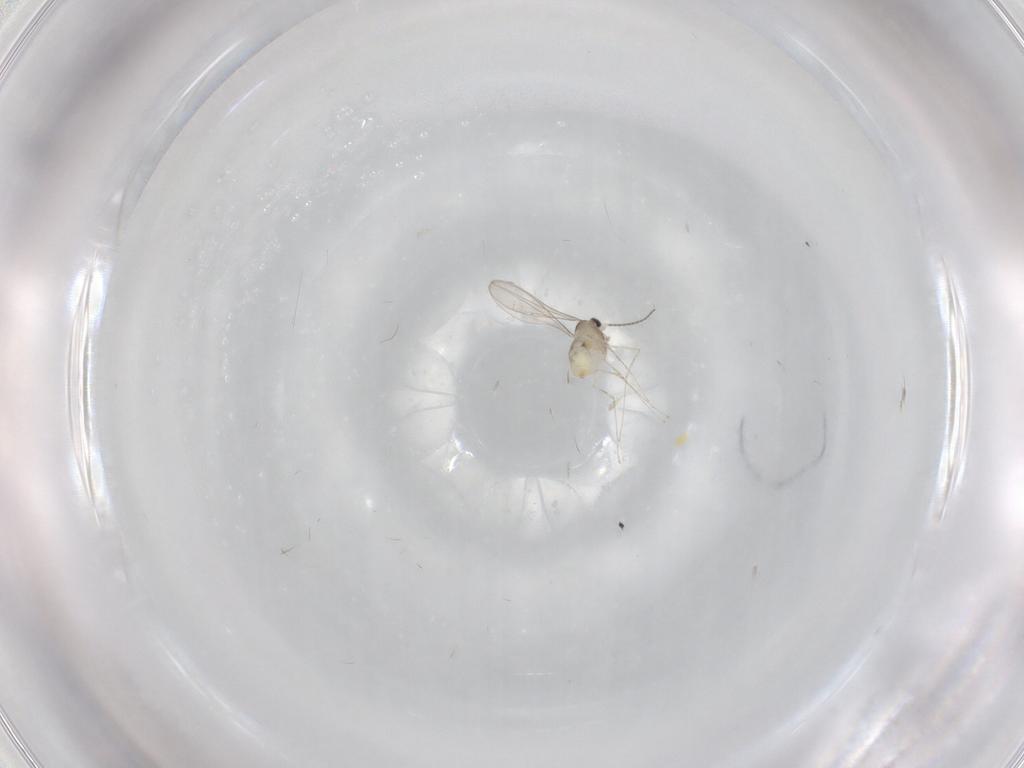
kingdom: Animalia
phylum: Arthropoda
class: Insecta
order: Diptera
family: Cecidomyiidae
